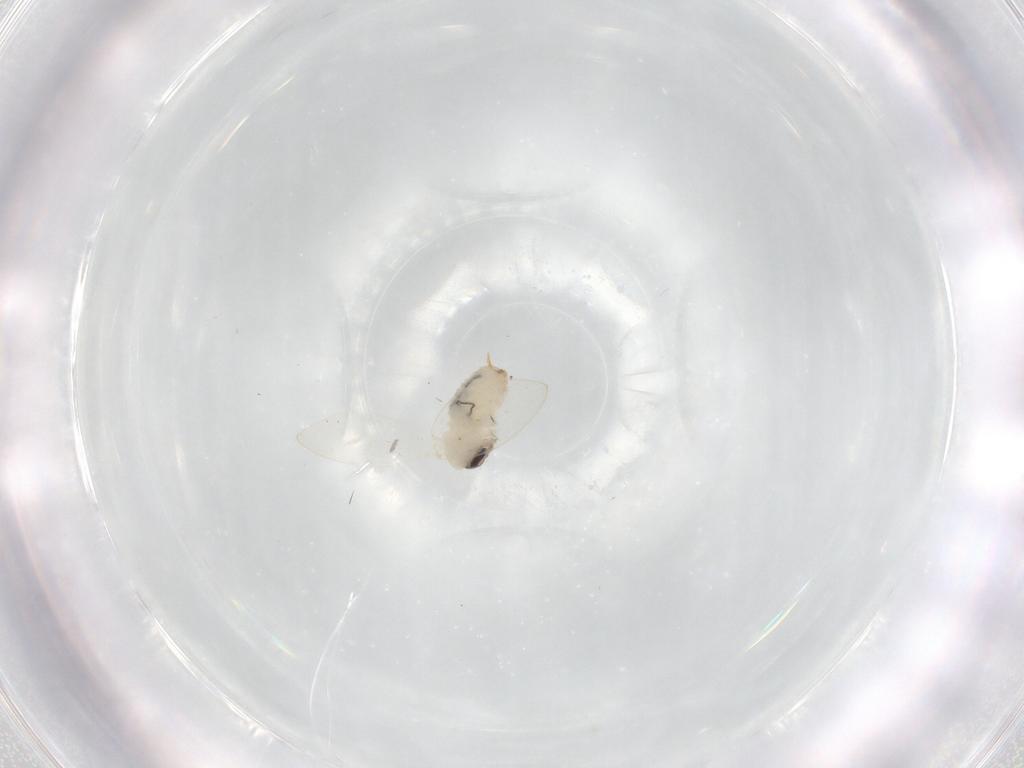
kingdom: Animalia
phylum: Arthropoda
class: Insecta
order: Diptera
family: Psychodidae
